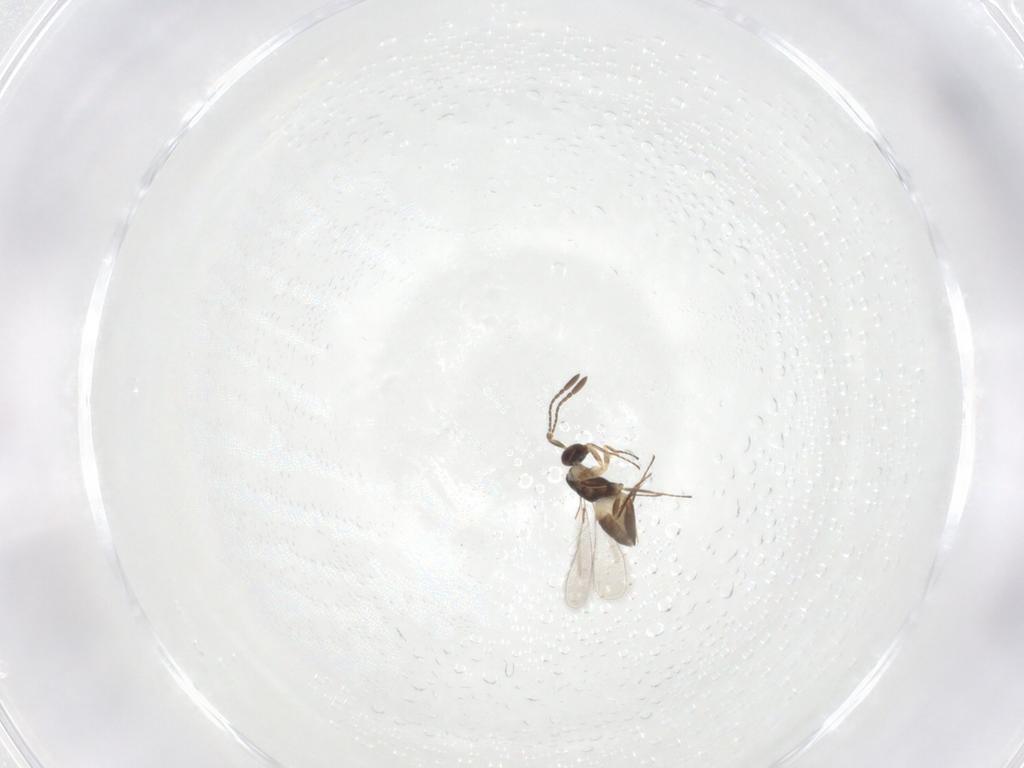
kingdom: Animalia
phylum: Arthropoda
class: Insecta
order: Hymenoptera
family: Mymaridae
